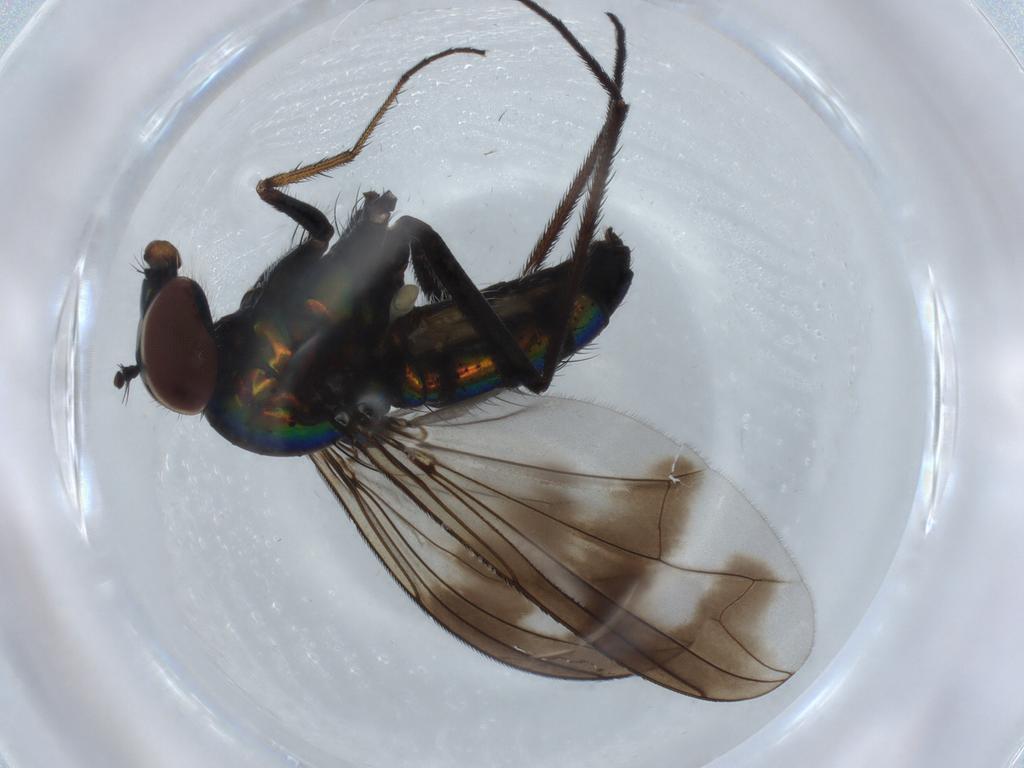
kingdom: Animalia
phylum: Arthropoda
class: Insecta
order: Diptera
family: Dolichopodidae
